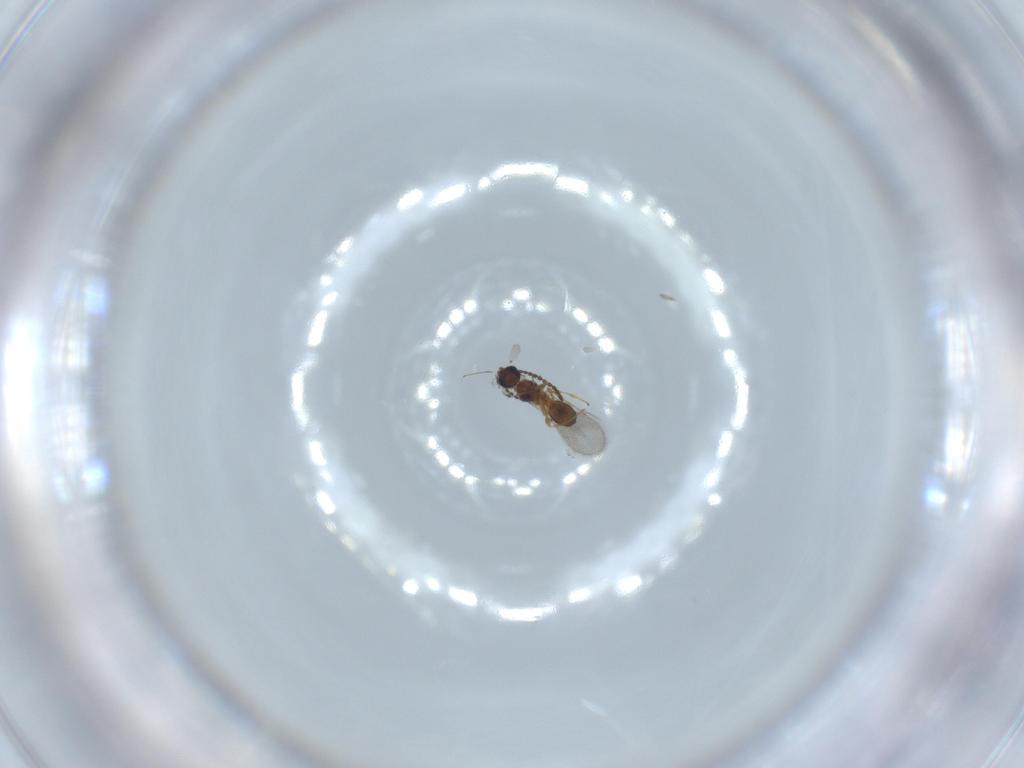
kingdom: Animalia
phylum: Arthropoda
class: Insecta
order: Hymenoptera
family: Diapriidae
